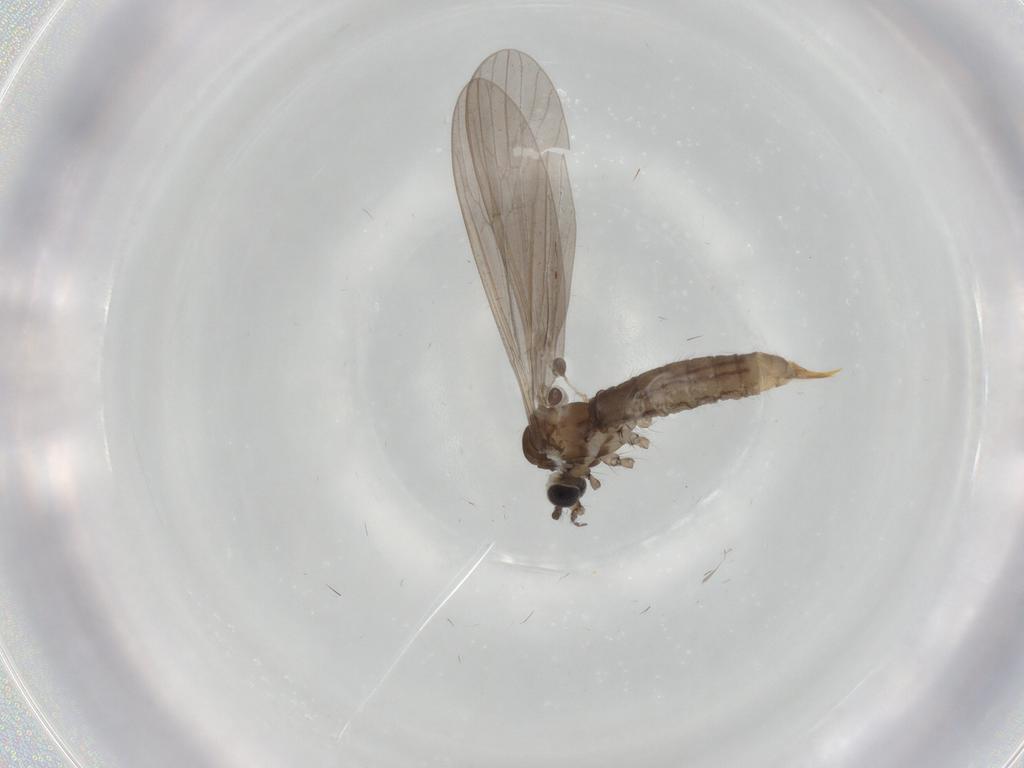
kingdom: Animalia
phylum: Arthropoda
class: Insecta
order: Diptera
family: Limoniidae
